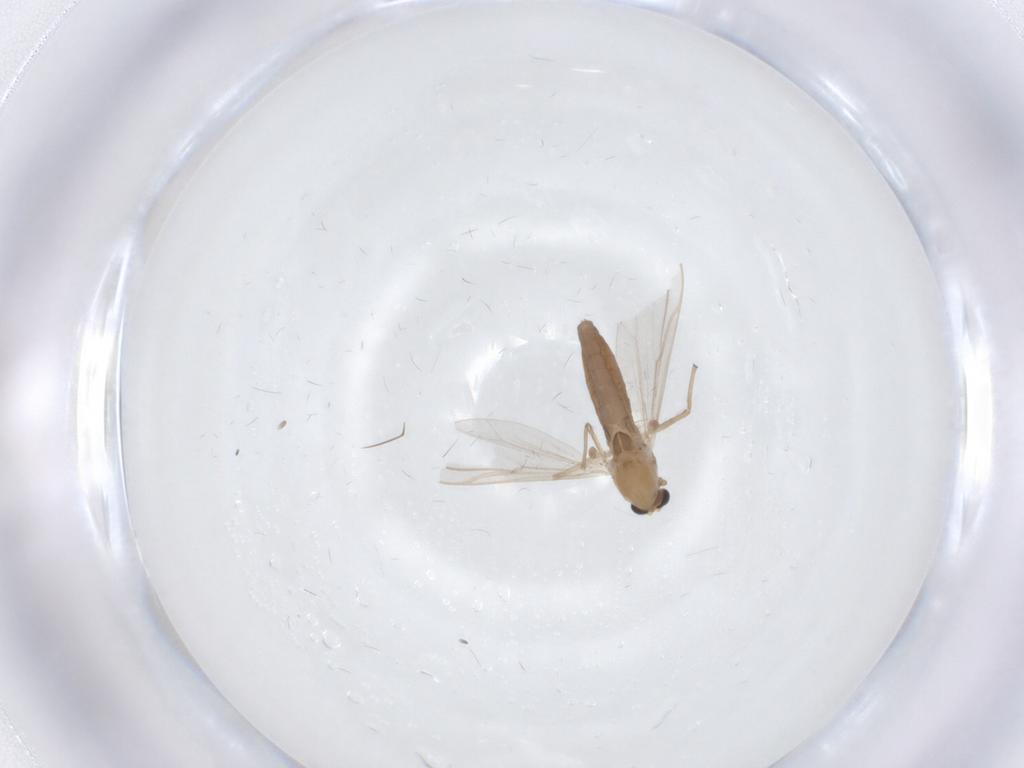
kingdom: Animalia
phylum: Arthropoda
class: Insecta
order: Diptera
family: Chironomidae
